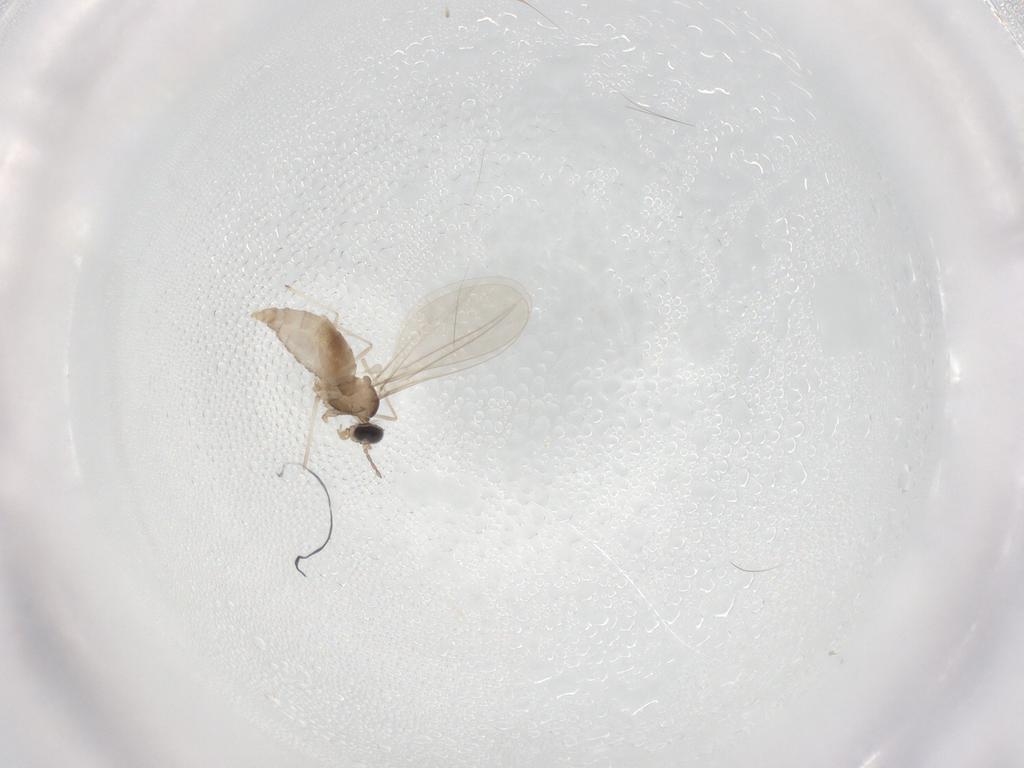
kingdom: Animalia
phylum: Arthropoda
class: Insecta
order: Diptera
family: Cecidomyiidae
